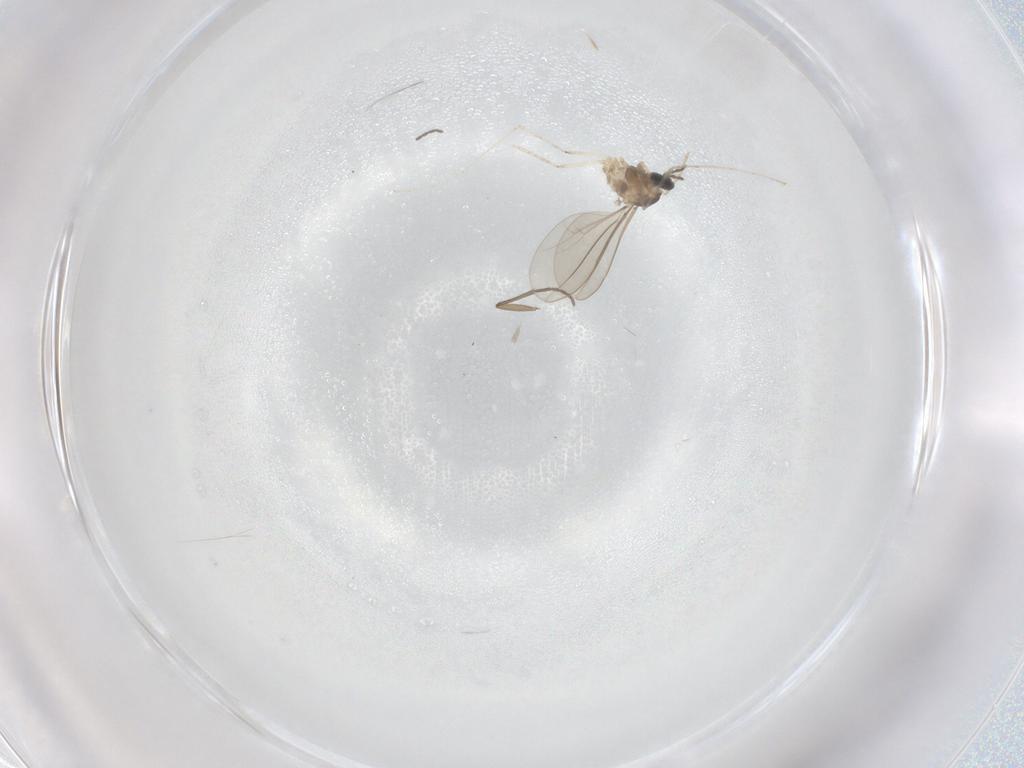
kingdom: Animalia
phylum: Arthropoda
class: Insecta
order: Diptera
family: Cecidomyiidae
